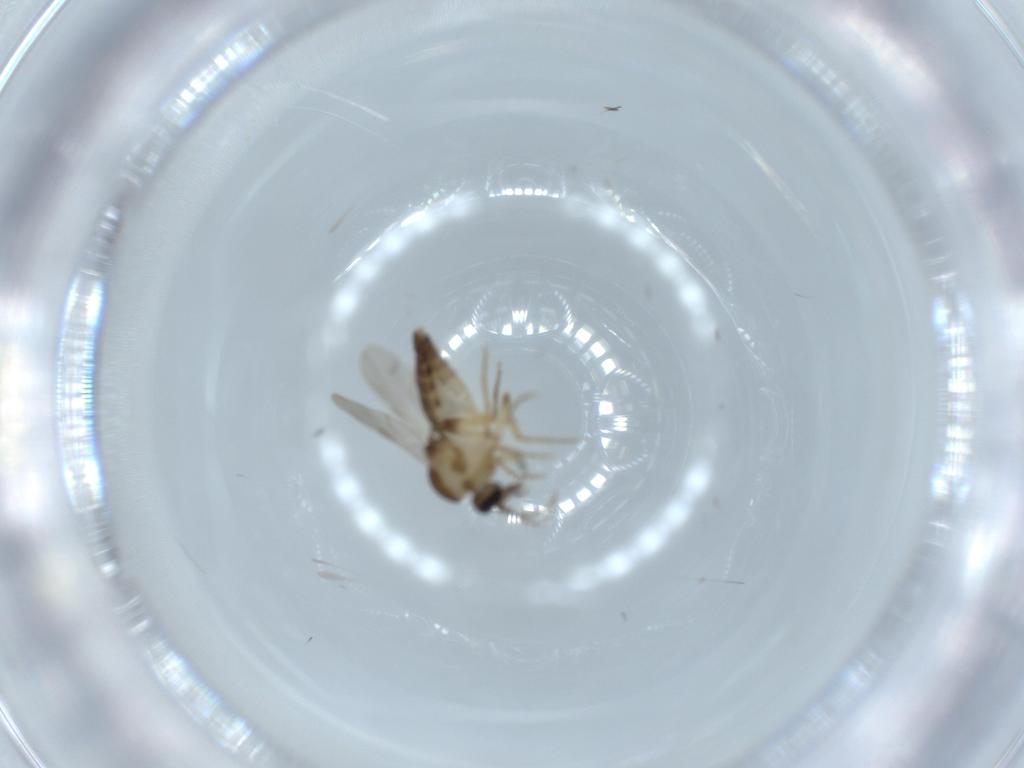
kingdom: Animalia
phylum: Arthropoda
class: Insecta
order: Diptera
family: Ceratopogonidae
